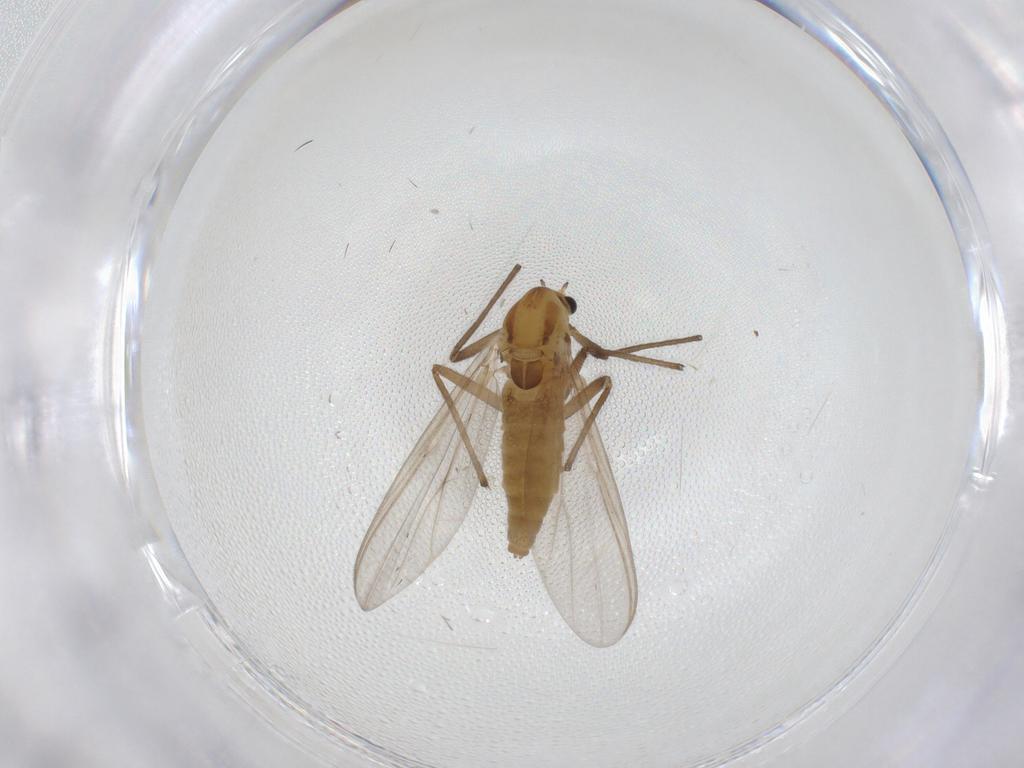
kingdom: Animalia
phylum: Arthropoda
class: Insecta
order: Diptera
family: Chironomidae
